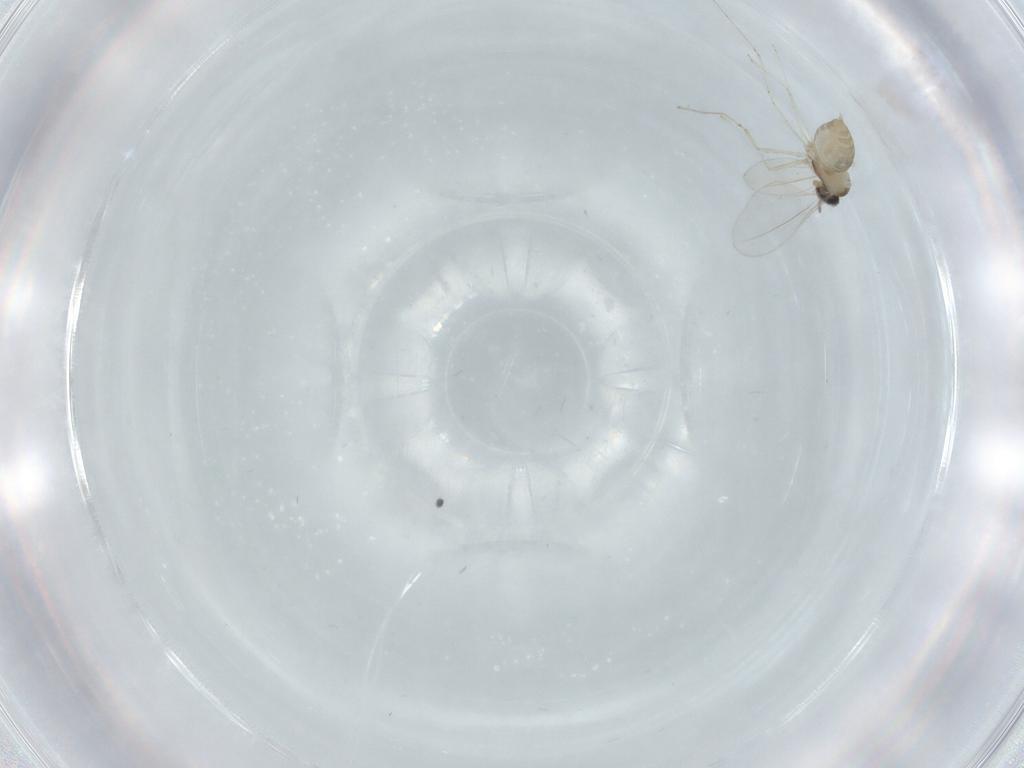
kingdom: Animalia
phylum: Arthropoda
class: Insecta
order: Diptera
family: Cecidomyiidae
